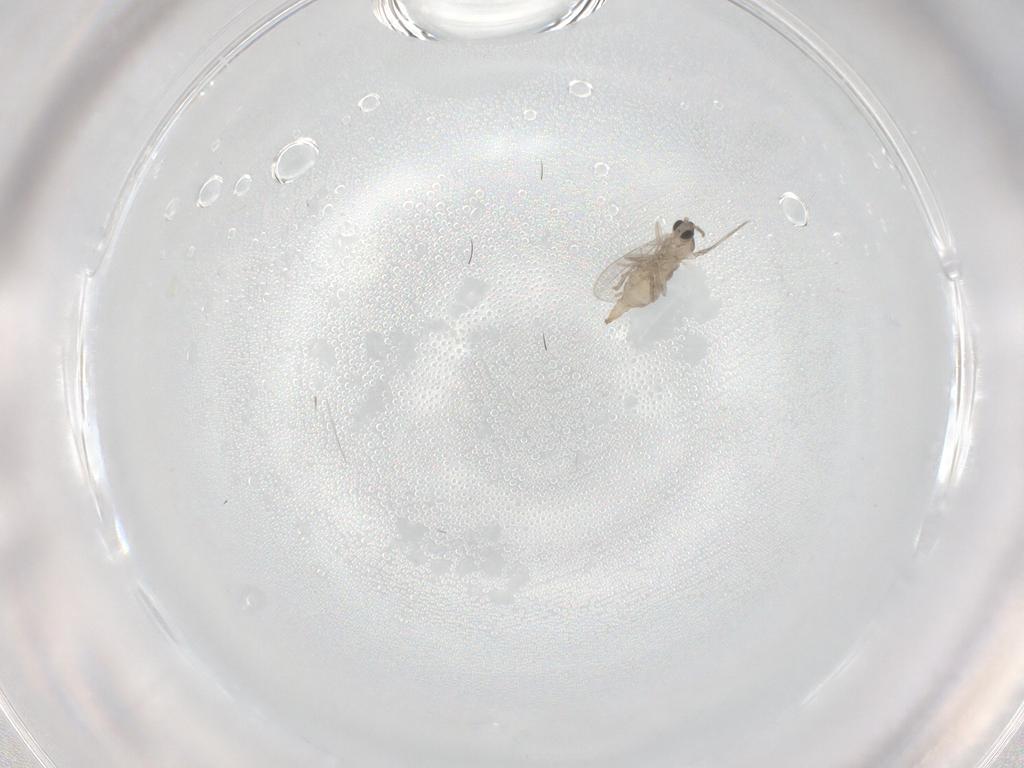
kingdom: Animalia
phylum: Arthropoda
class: Insecta
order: Diptera
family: Cecidomyiidae
